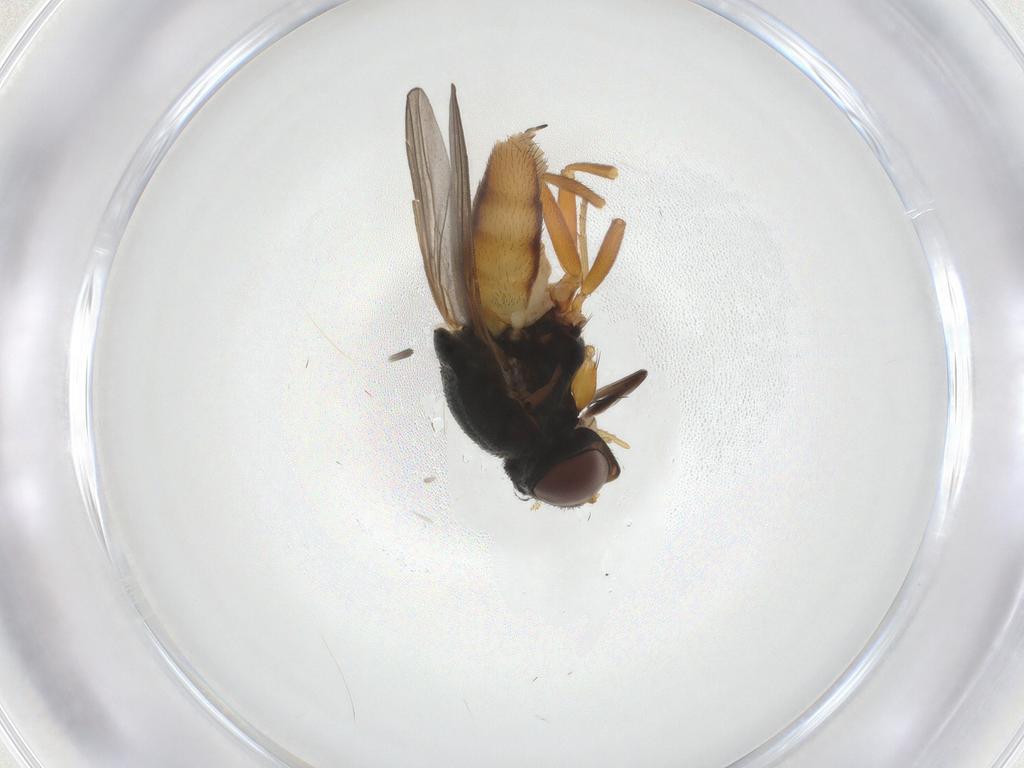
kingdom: Animalia
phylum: Arthropoda
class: Insecta
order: Diptera
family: Chloropidae
